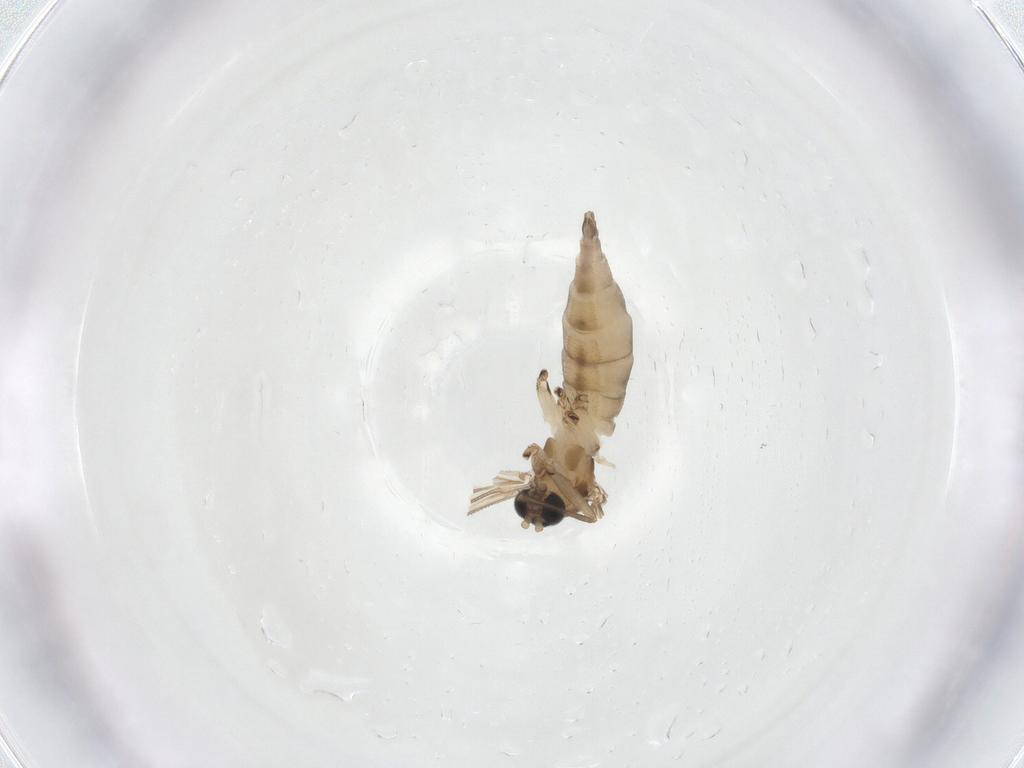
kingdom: Animalia
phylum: Arthropoda
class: Insecta
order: Diptera
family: Sciaridae
